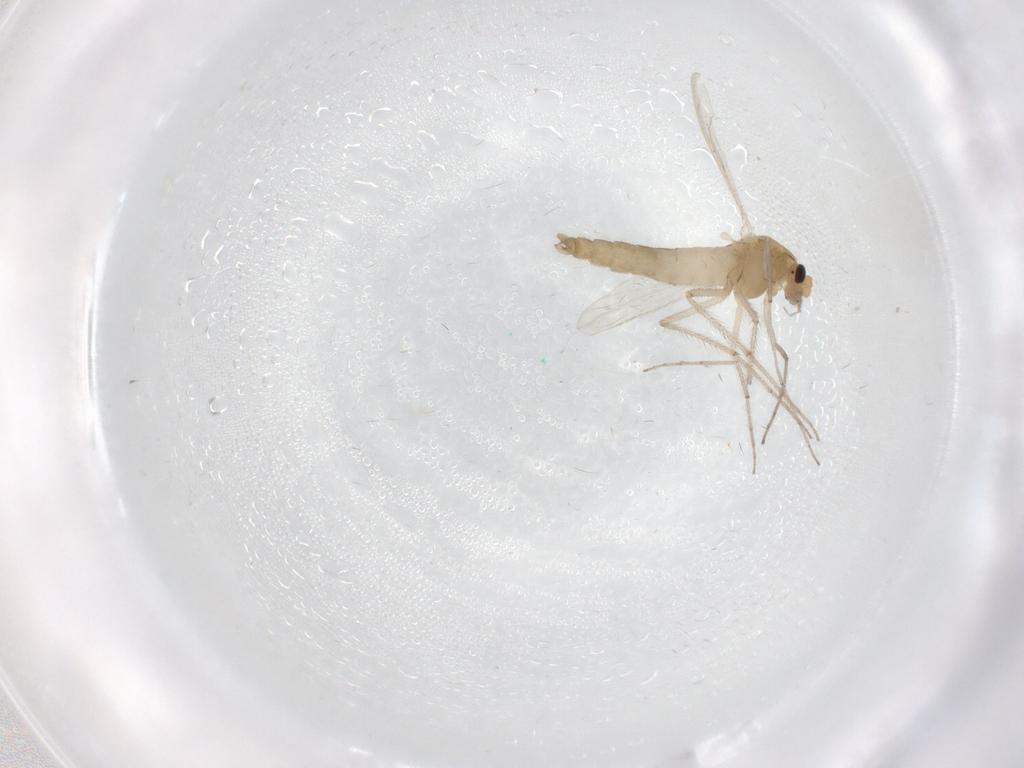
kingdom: Animalia
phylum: Arthropoda
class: Insecta
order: Diptera
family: Chironomidae
